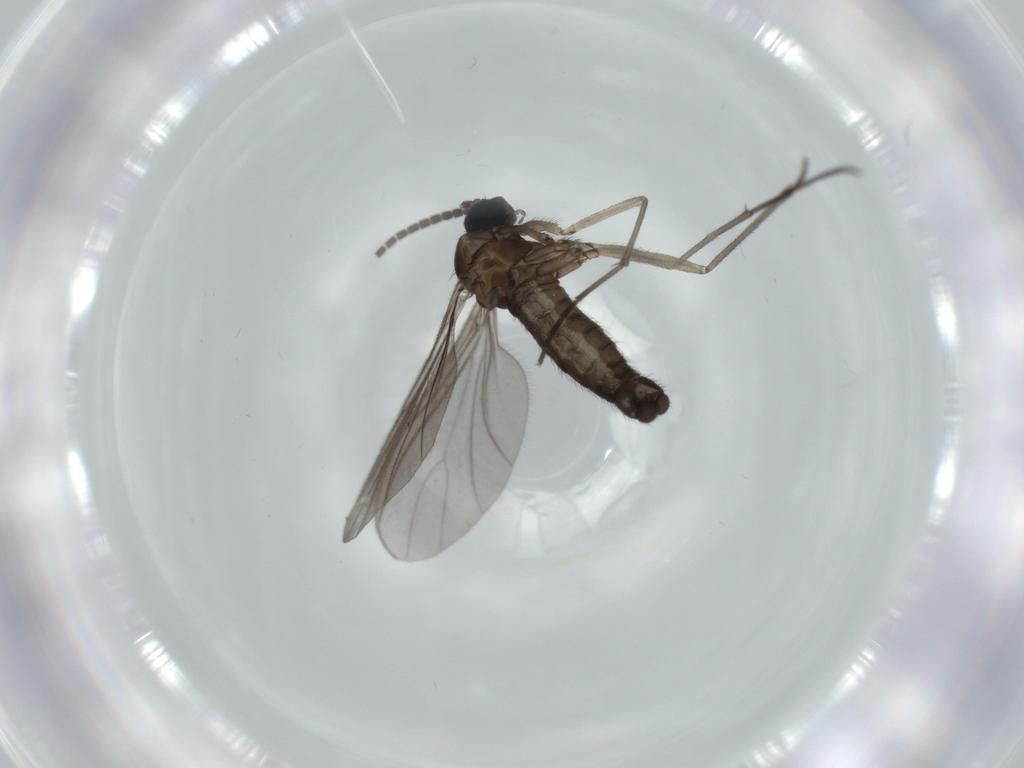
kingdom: Animalia
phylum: Arthropoda
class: Insecta
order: Diptera
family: Sciaridae
